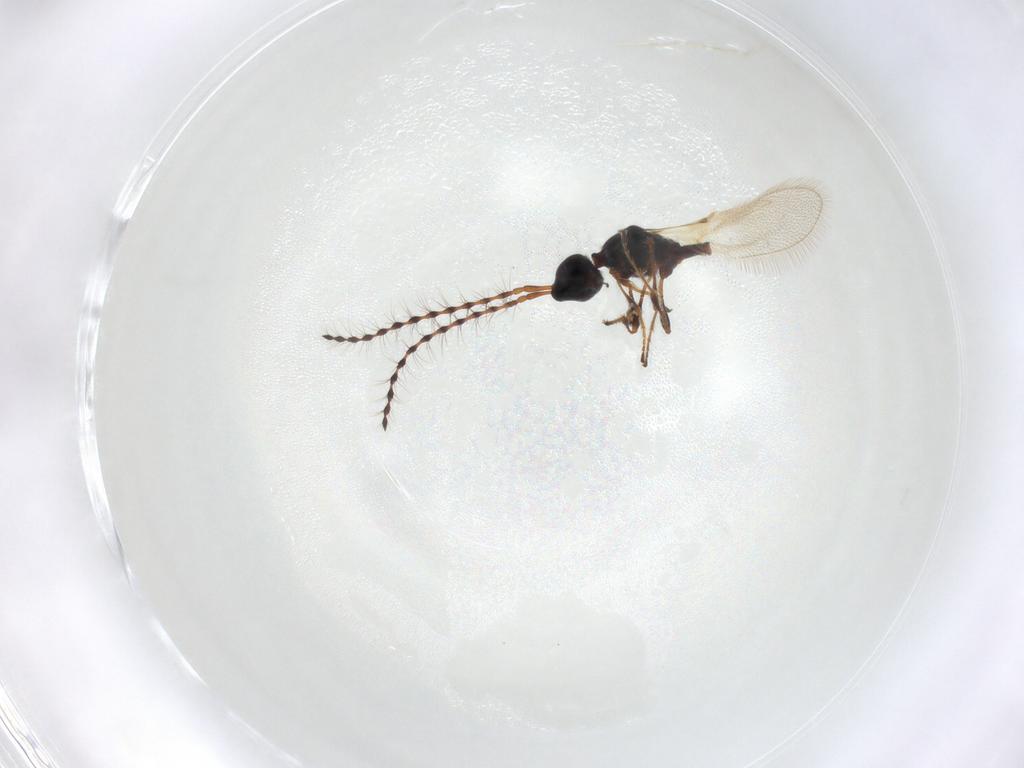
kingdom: Animalia
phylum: Arthropoda
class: Insecta
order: Hymenoptera
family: Diapriidae
